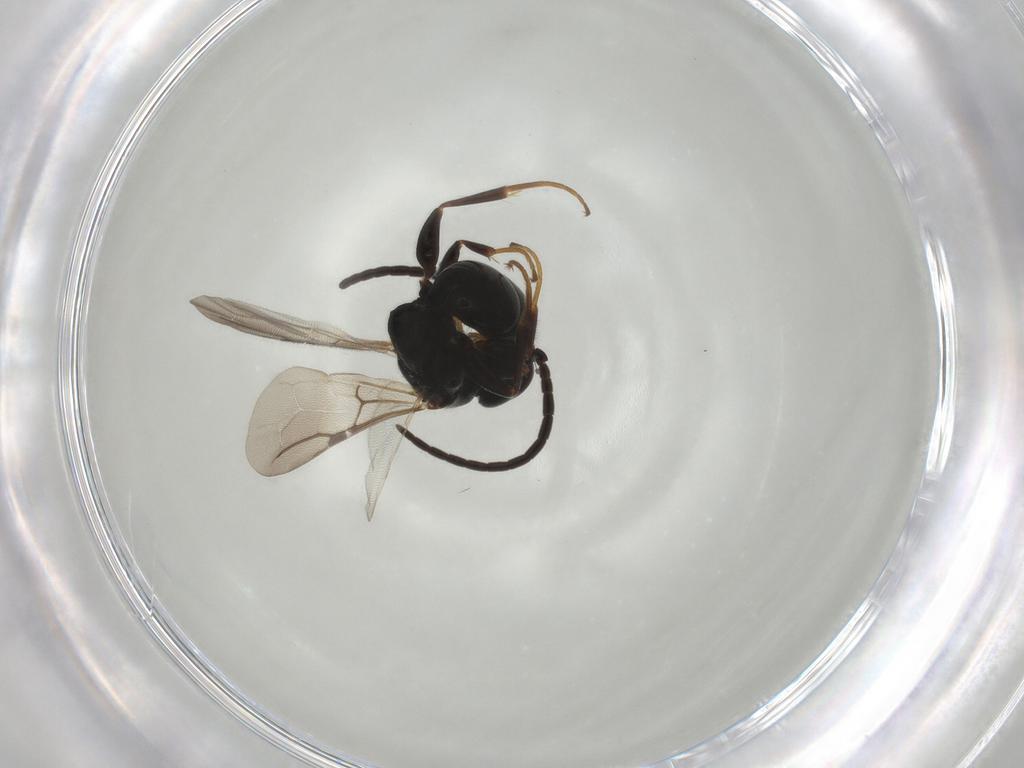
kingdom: Animalia
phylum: Arthropoda
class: Insecta
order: Hymenoptera
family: Bethylidae
